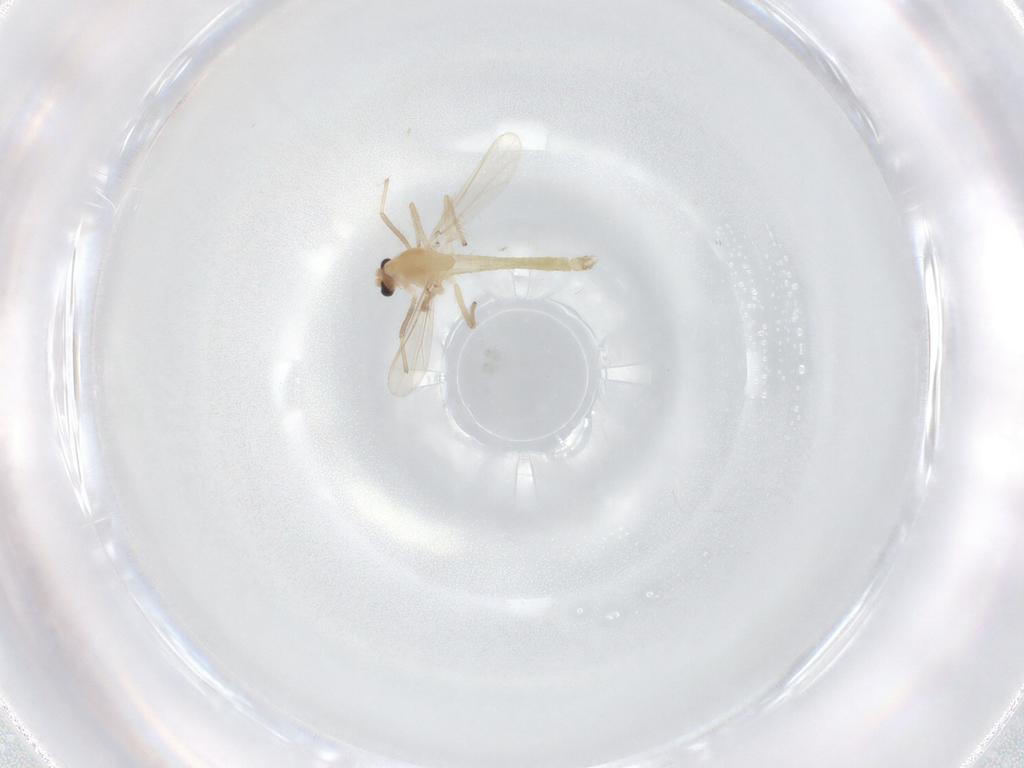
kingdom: Animalia
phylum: Arthropoda
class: Insecta
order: Diptera
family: Chironomidae
